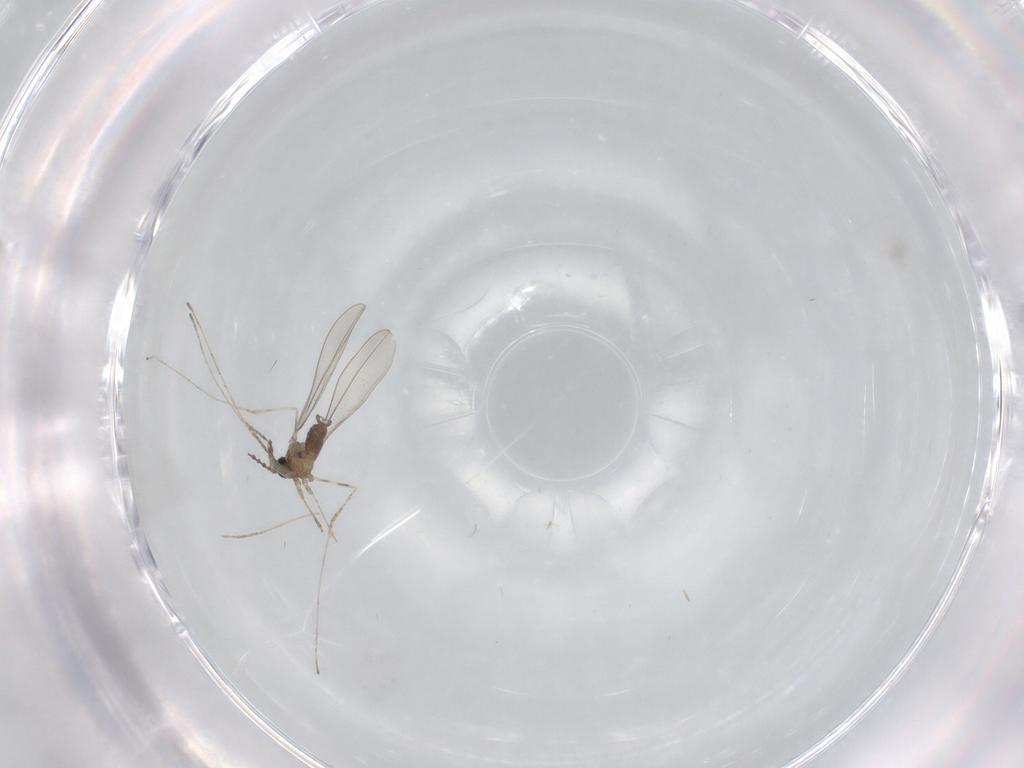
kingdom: Animalia
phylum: Arthropoda
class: Insecta
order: Diptera
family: Cecidomyiidae
